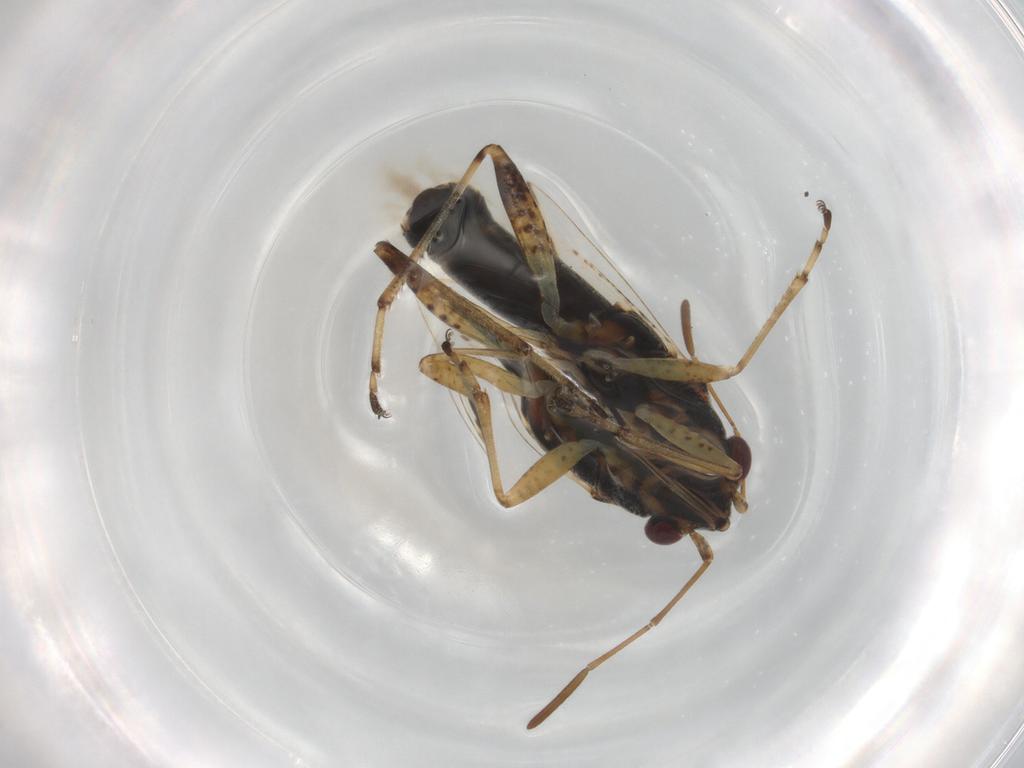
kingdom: Animalia
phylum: Arthropoda
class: Insecta
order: Hemiptera
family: Lygaeidae
